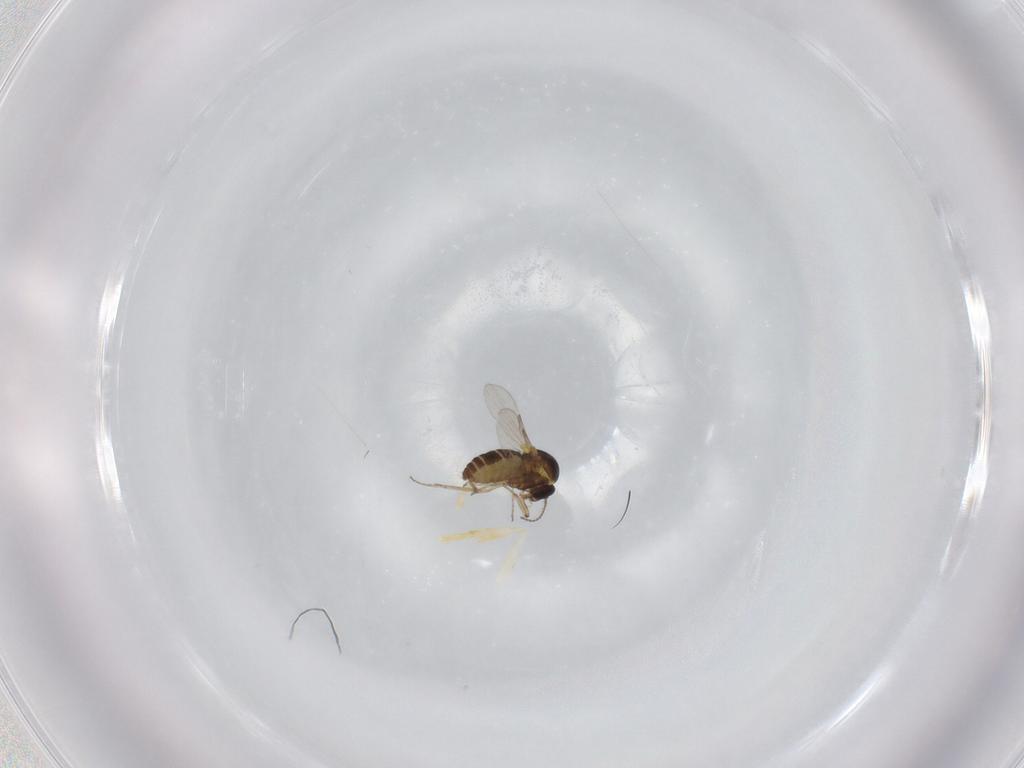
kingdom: Animalia
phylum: Arthropoda
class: Insecta
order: Diptera
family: Ceratopogonidae
